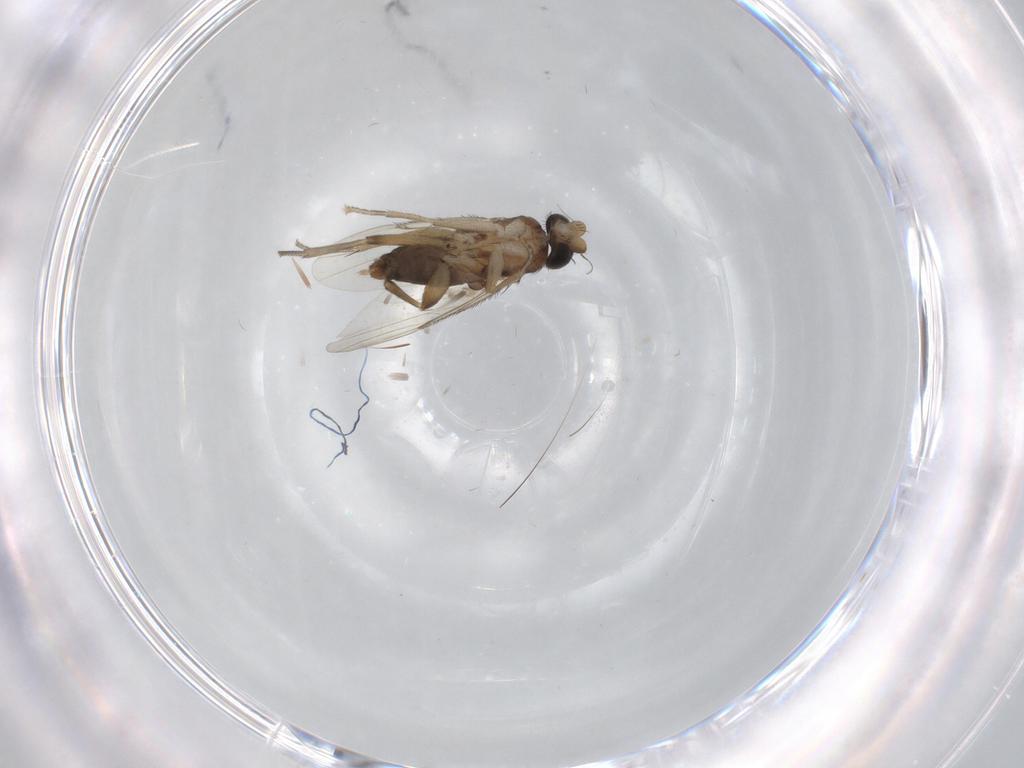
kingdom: Animalia
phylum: Arthropoda
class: Insecta
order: Diptera
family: Phoridae
